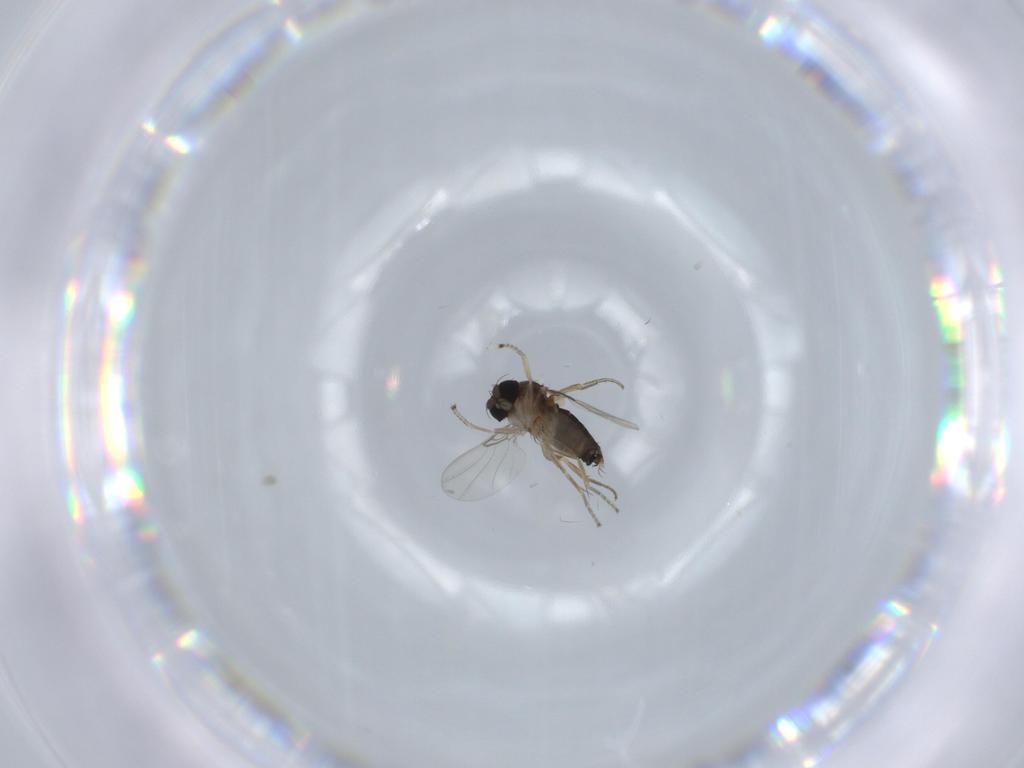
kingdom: Animalia
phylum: Arthropoda
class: Insecta
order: Diptera
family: Phoridae
